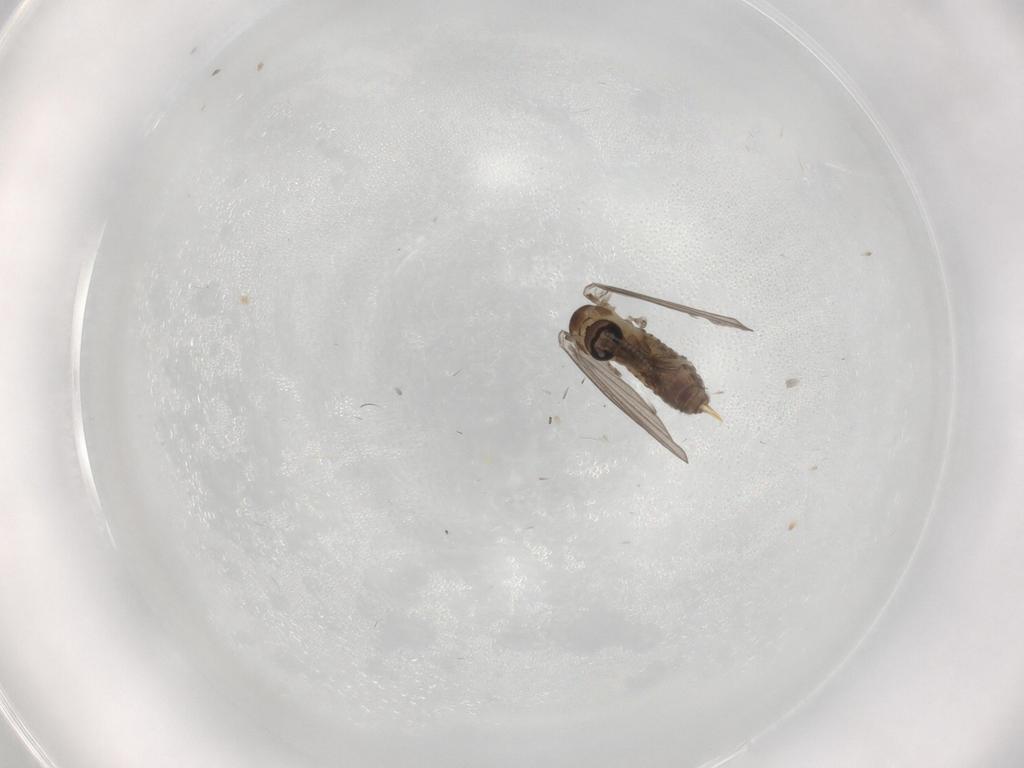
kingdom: Animalia
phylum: Arthropoda
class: Insecta
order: Diptera
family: Psychodidae
